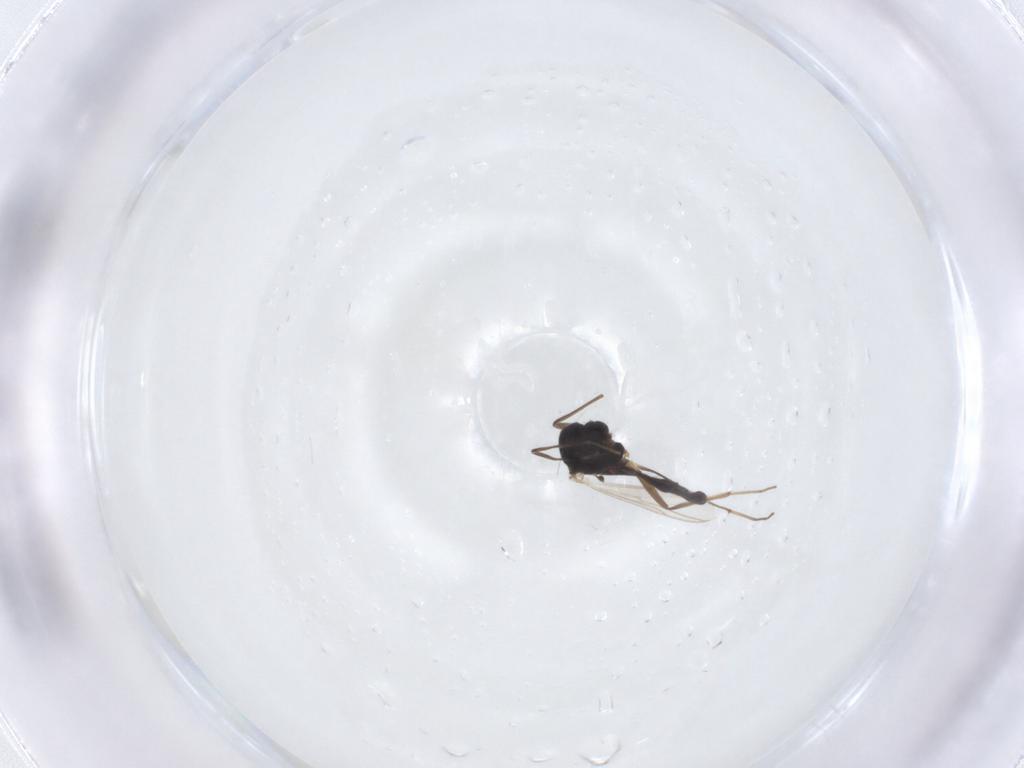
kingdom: Animalia
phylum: Arthropoda
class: Insecta
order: Diptera
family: Chironomidae
